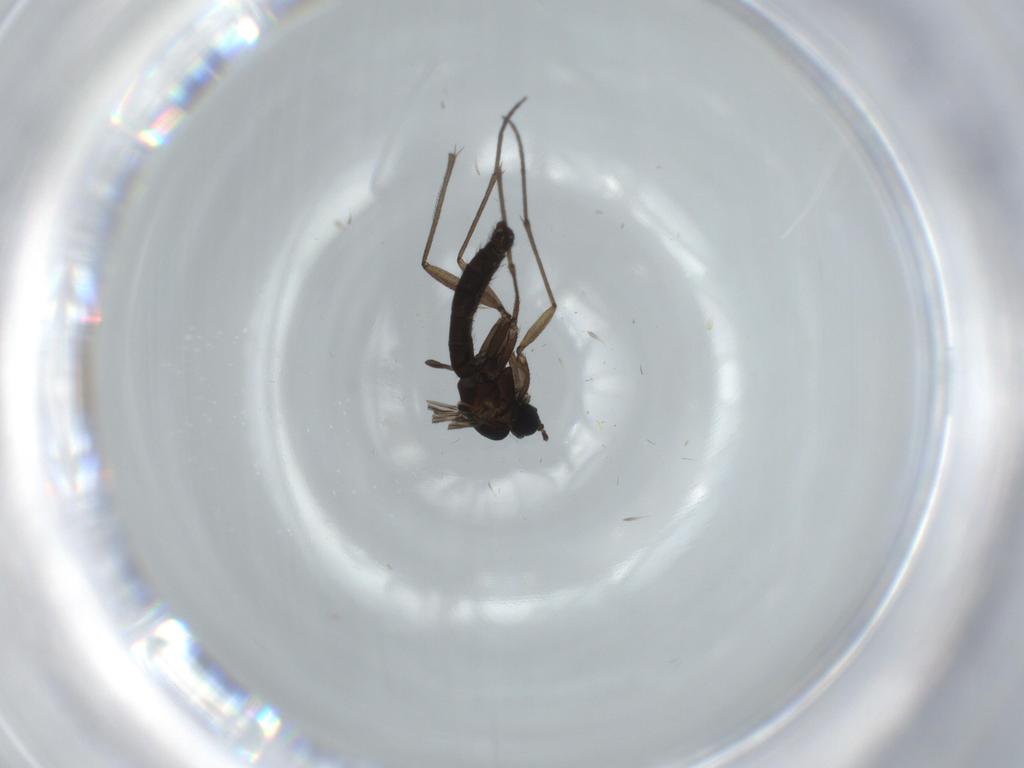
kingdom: Animalia
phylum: Arthropoda
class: Insecta
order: Diptera
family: Sciaridae
